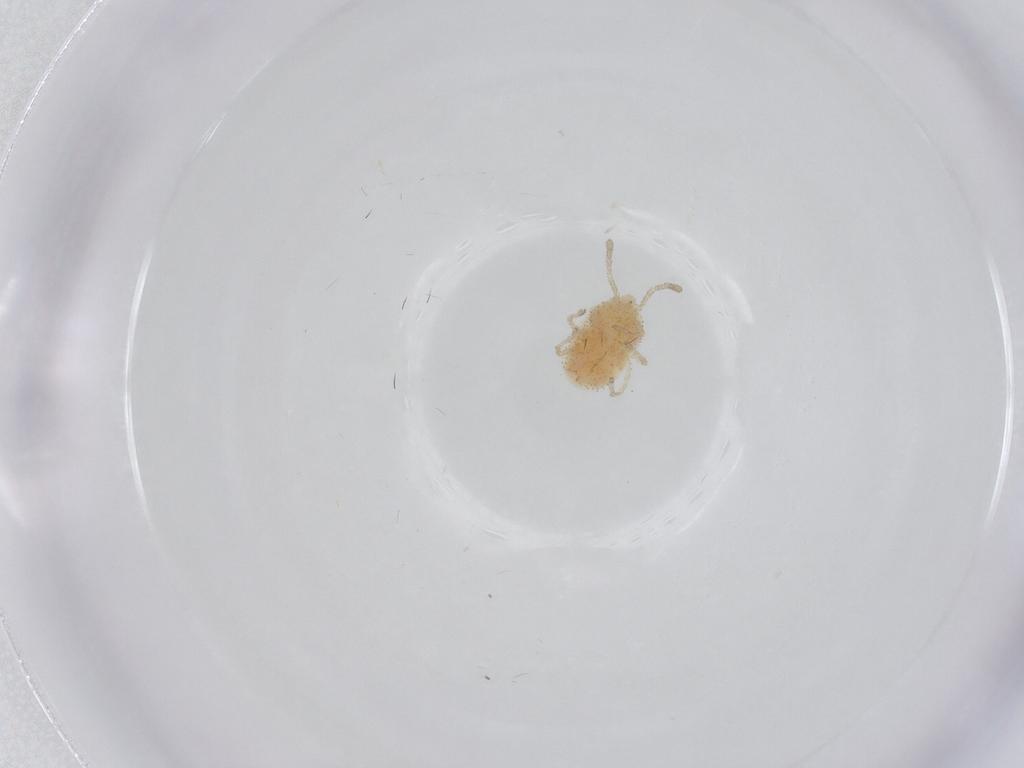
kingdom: Animalia
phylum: Arthropoda
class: Insecta
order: Hemiptera
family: Psyllidae
